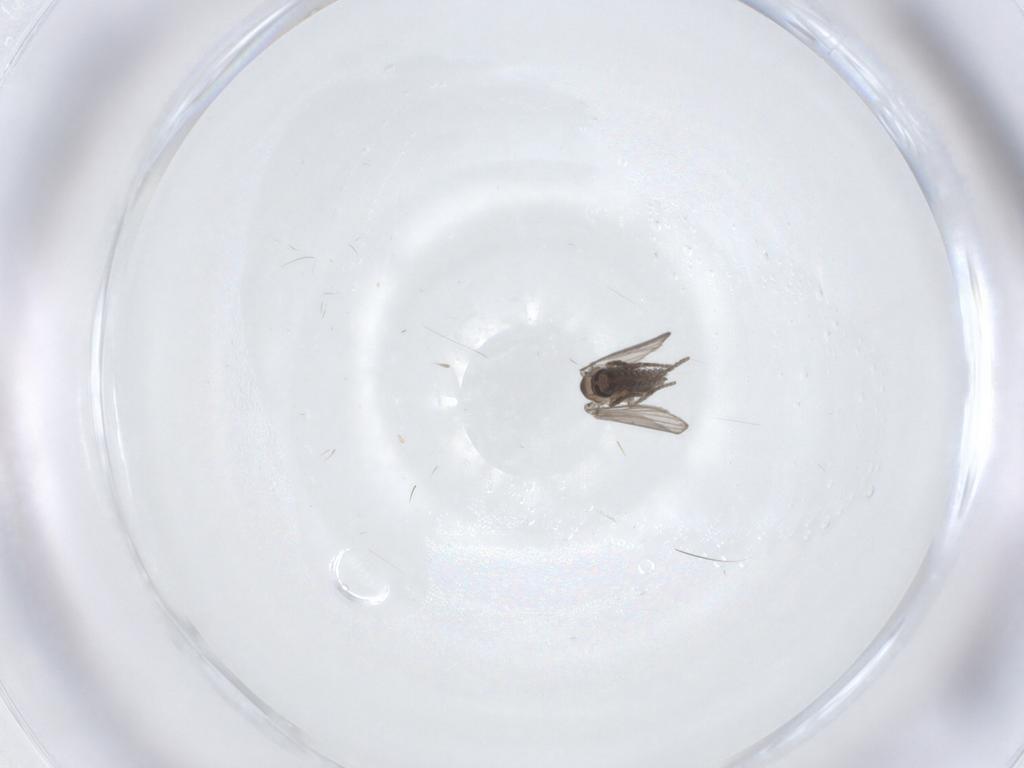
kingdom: Animalia
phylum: Arthropoda
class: Insecta
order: Diptera
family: Psychodidae
